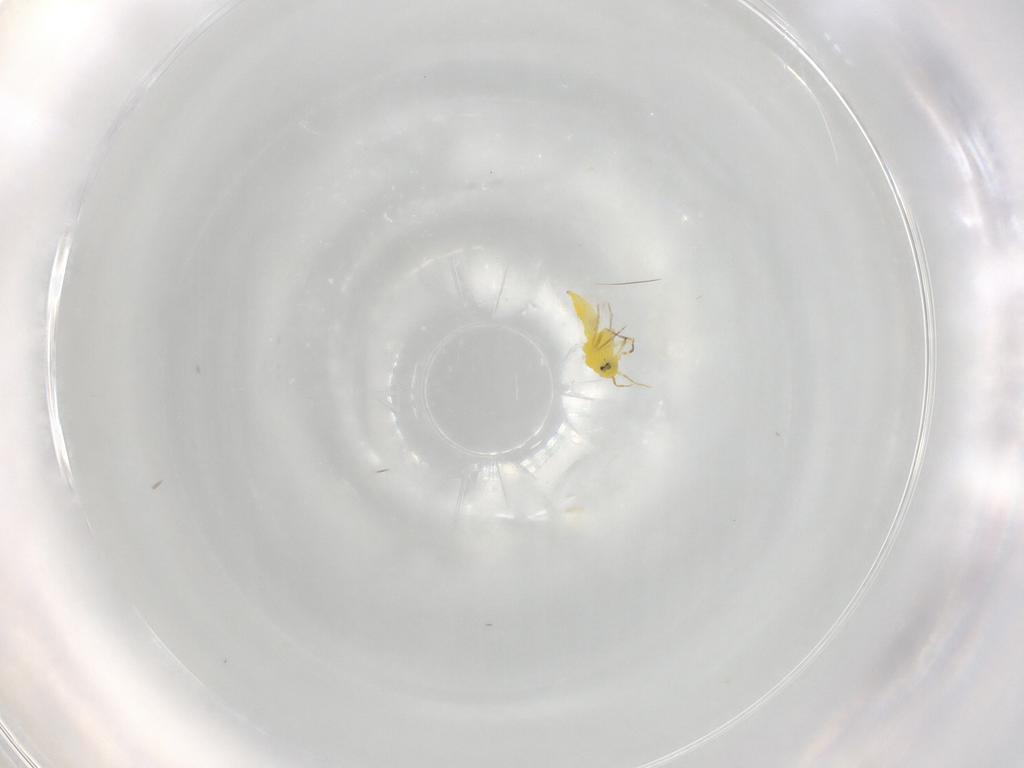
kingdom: Animalia
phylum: Arthropoda
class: Insecta
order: Hemiptera
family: Aleyrodidae
